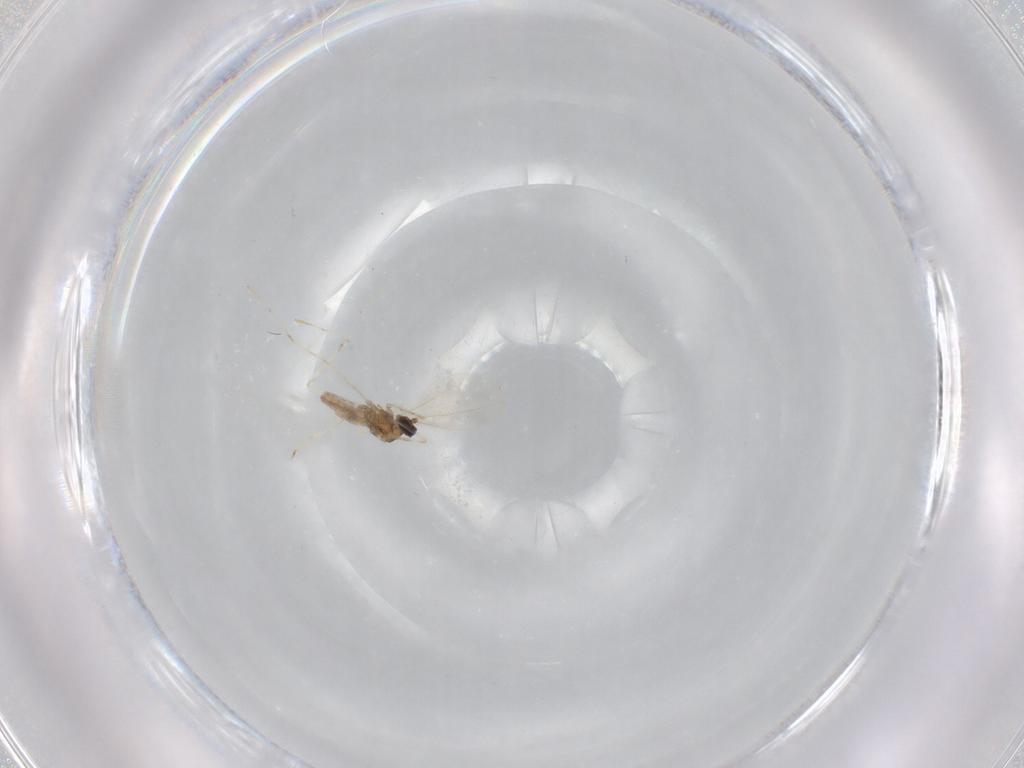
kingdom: Animalia
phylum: Arthropoda
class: Insecta
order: Diptera
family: Cecidomyiidae
